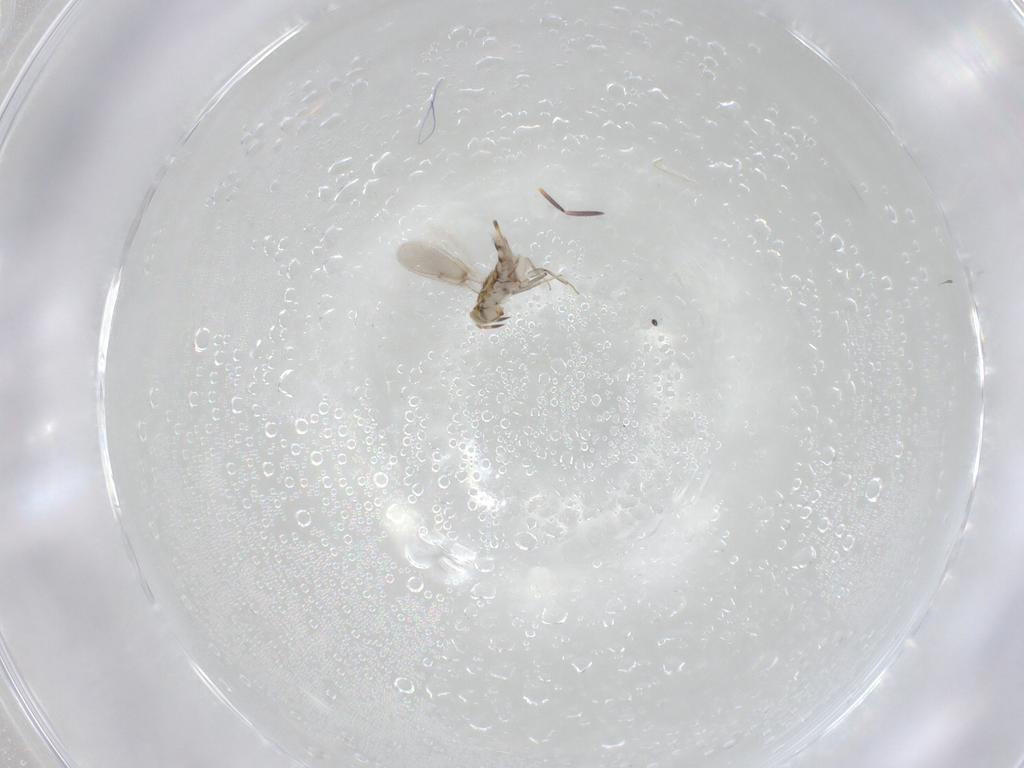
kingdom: Animalia
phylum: Arthropoda
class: Insecta
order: Hymenoptera
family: Aphelinidae
